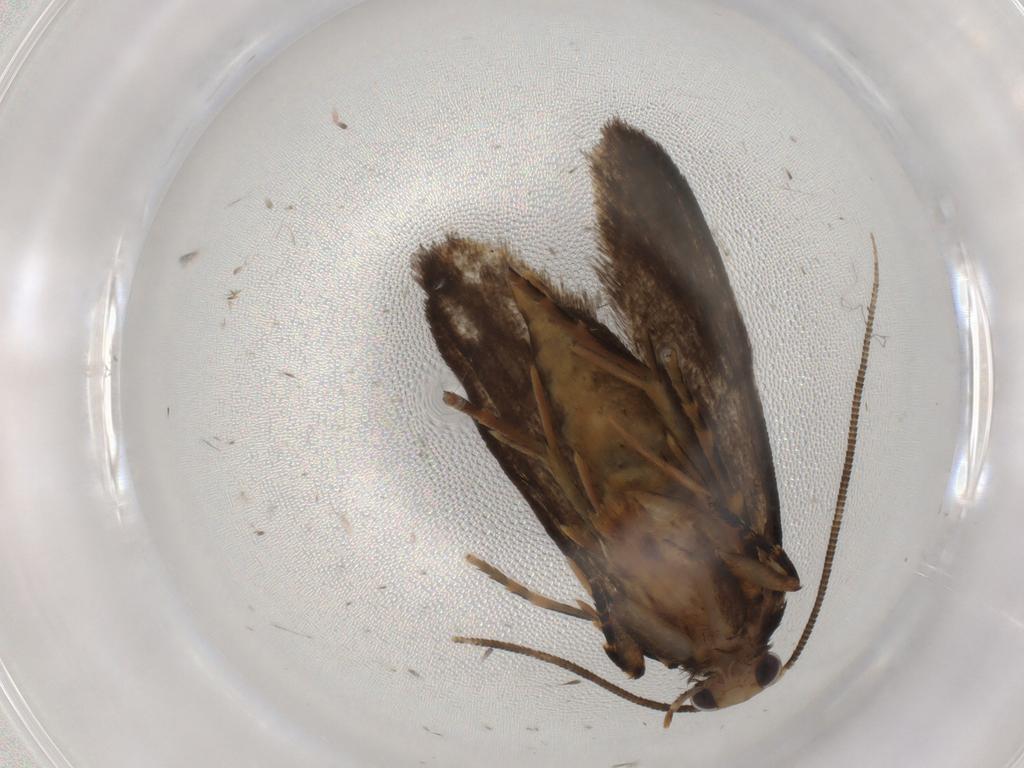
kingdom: Animalia
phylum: Arthropoda
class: Insecta
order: Lepidoptera
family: Tineidae
